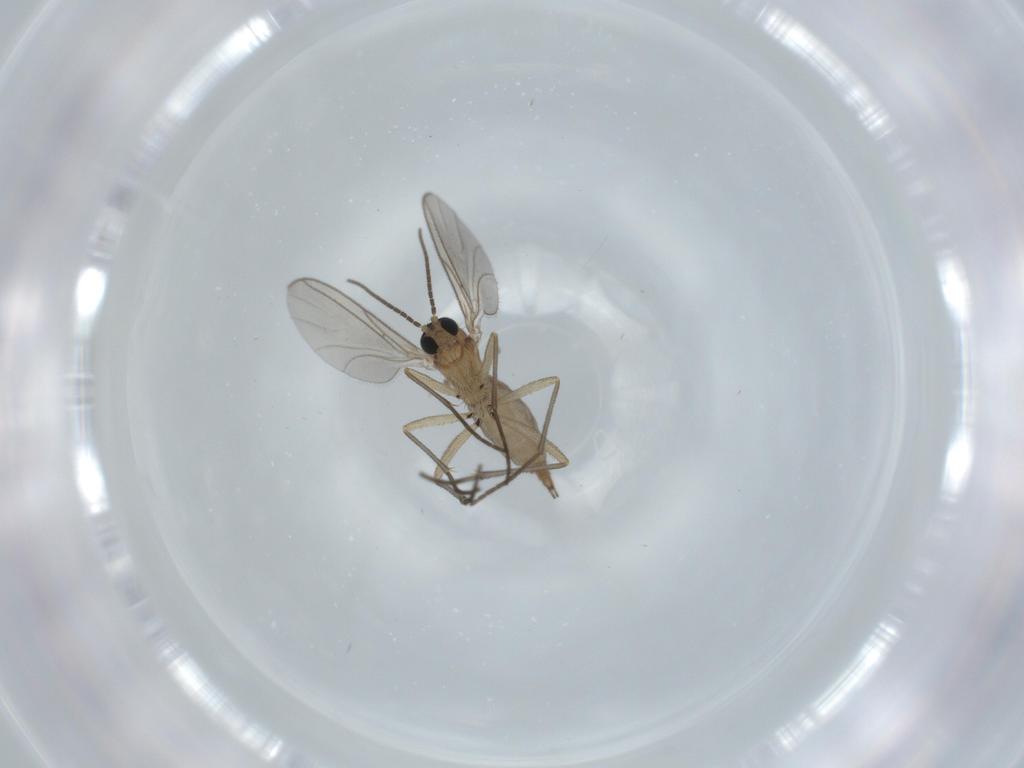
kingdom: Animalia
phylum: Arthropoda
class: Insecta
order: Diptera
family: Sciaridae
